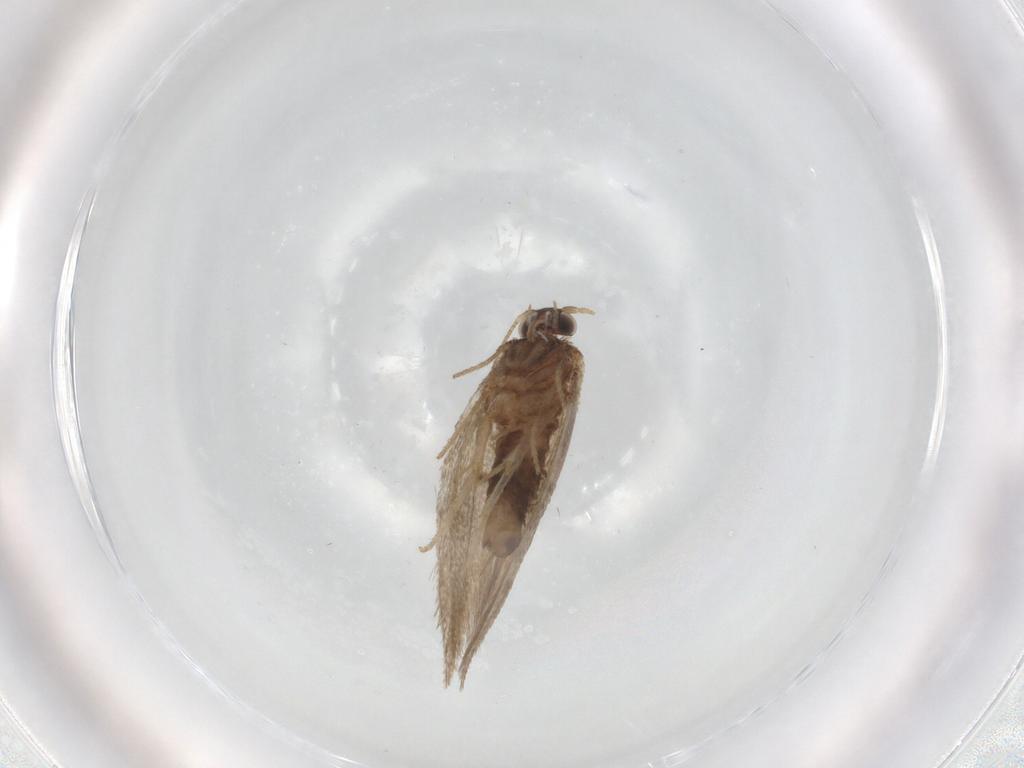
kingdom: Animalia
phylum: Arthropoda
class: Insecta
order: Lepidoptera
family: Nepticulidae
